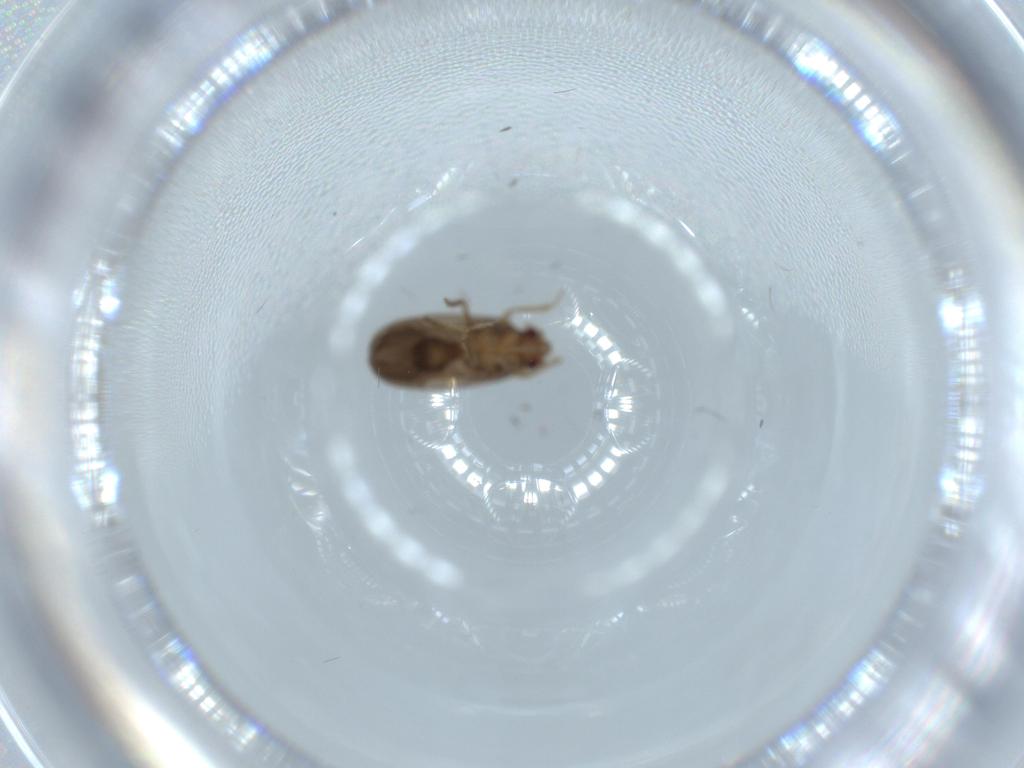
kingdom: Animalia
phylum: Arthropoda
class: Insecta
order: Hemiptera
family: Ceratocombidae
